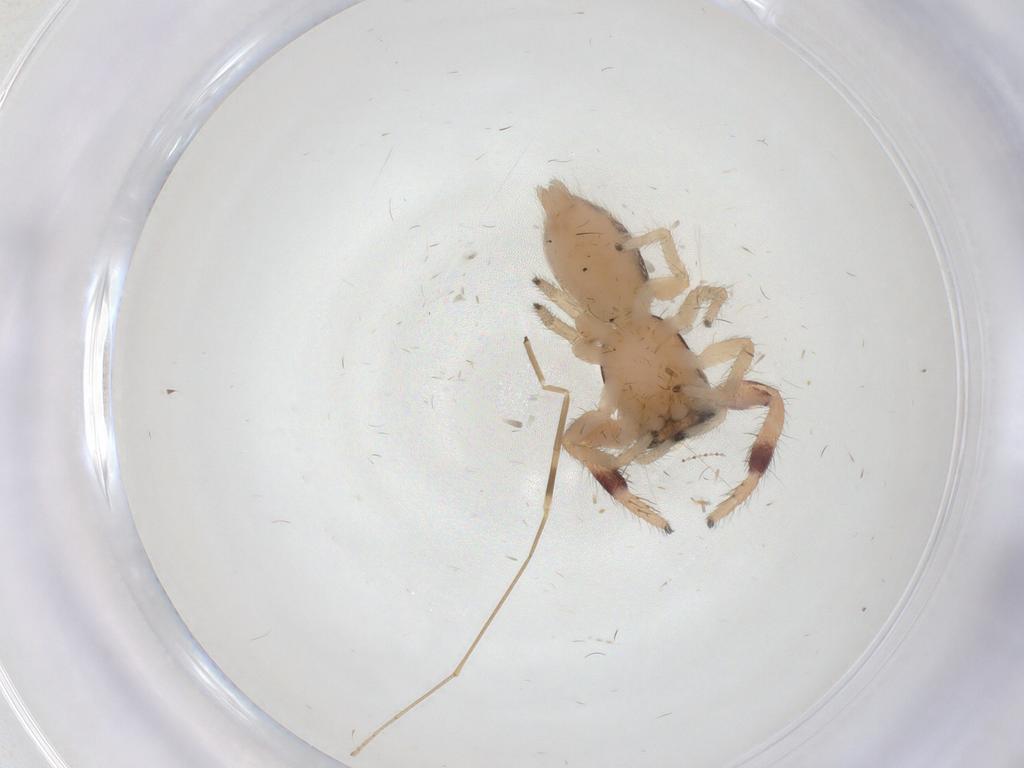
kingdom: Animalia
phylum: Arthropoda
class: Arachnida
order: Araneae
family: Salticidae
